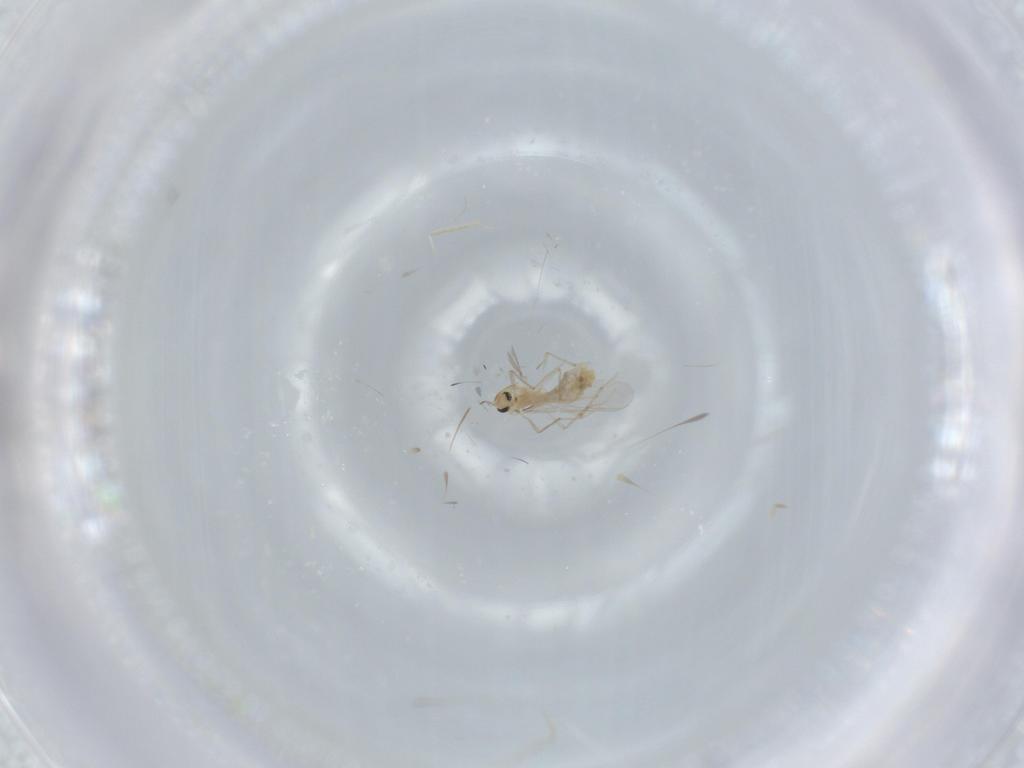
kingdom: Animalia
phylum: Arthropoda
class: Insecta
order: Diptera
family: Chironomidae
